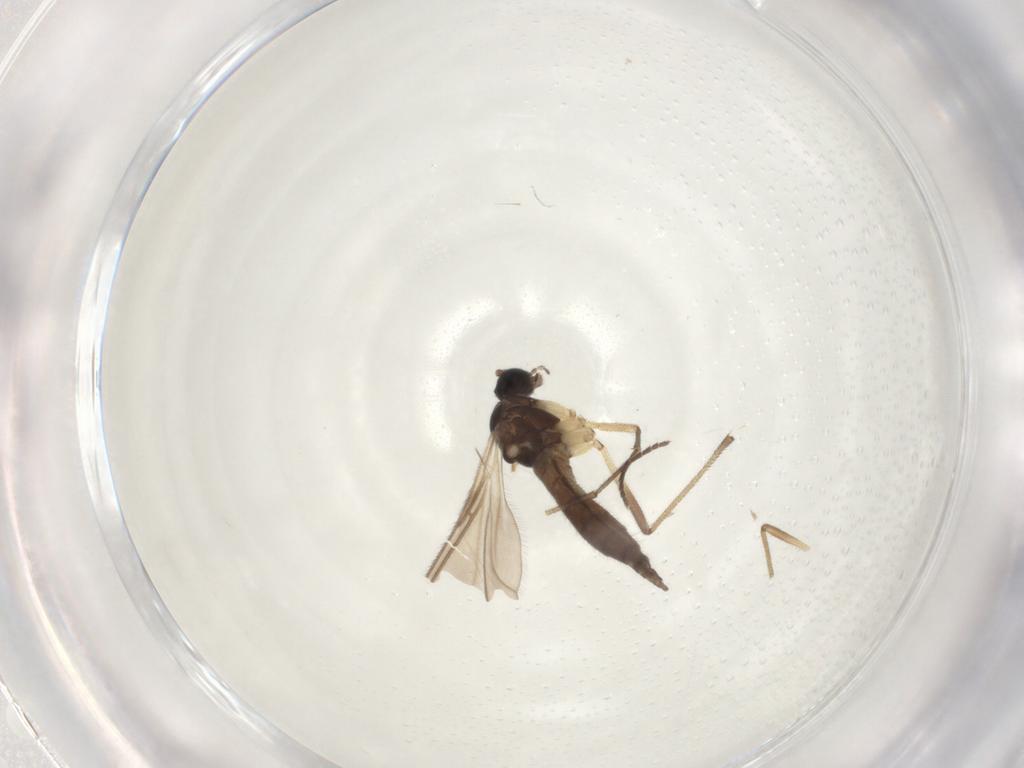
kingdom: Animalia
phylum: Arthropoda
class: Insecta
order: Diptera
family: Sciaridae
